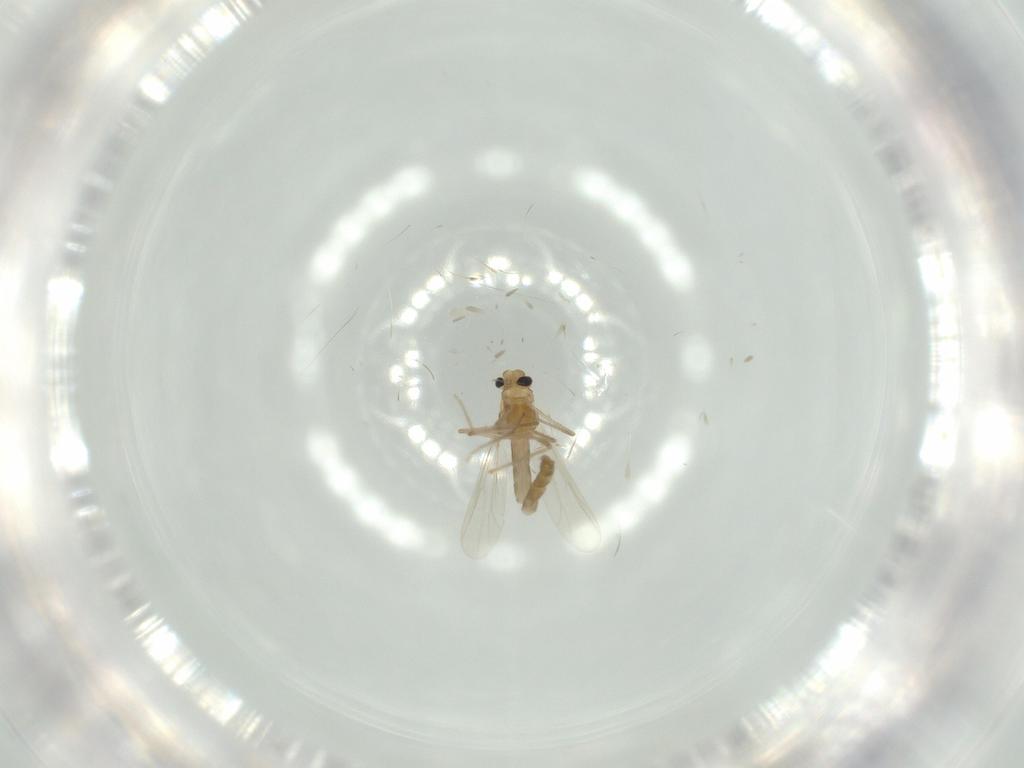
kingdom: Animalia
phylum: Arthropoda
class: Insecta
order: Diptera
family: Chironomidae
